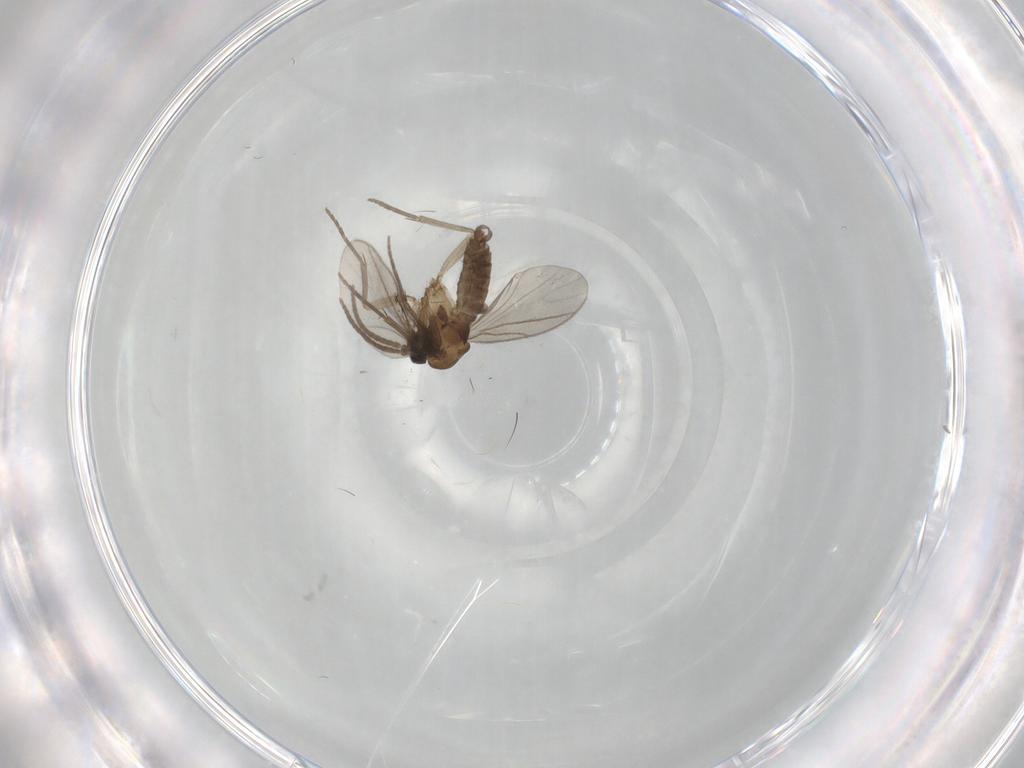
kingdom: Animalia
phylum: Arthropoda
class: Insecta
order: Diptera
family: Sciaridae
